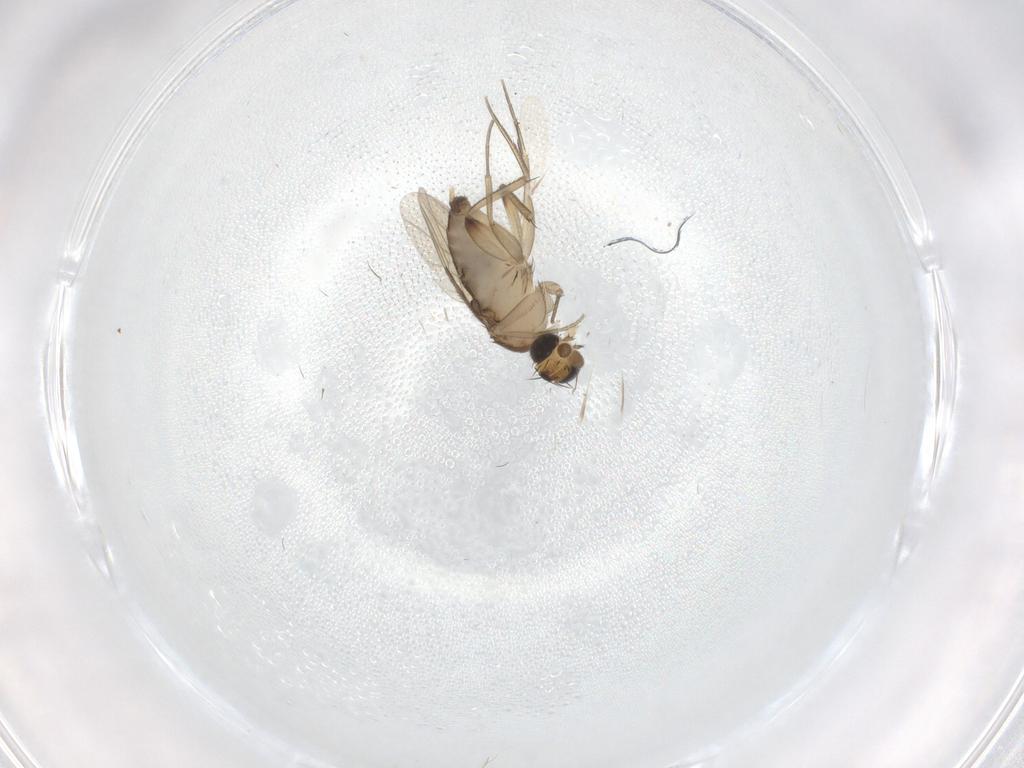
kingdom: Animalia
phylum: Arthropoda
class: Insecta
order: Diptera
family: Phoridae
